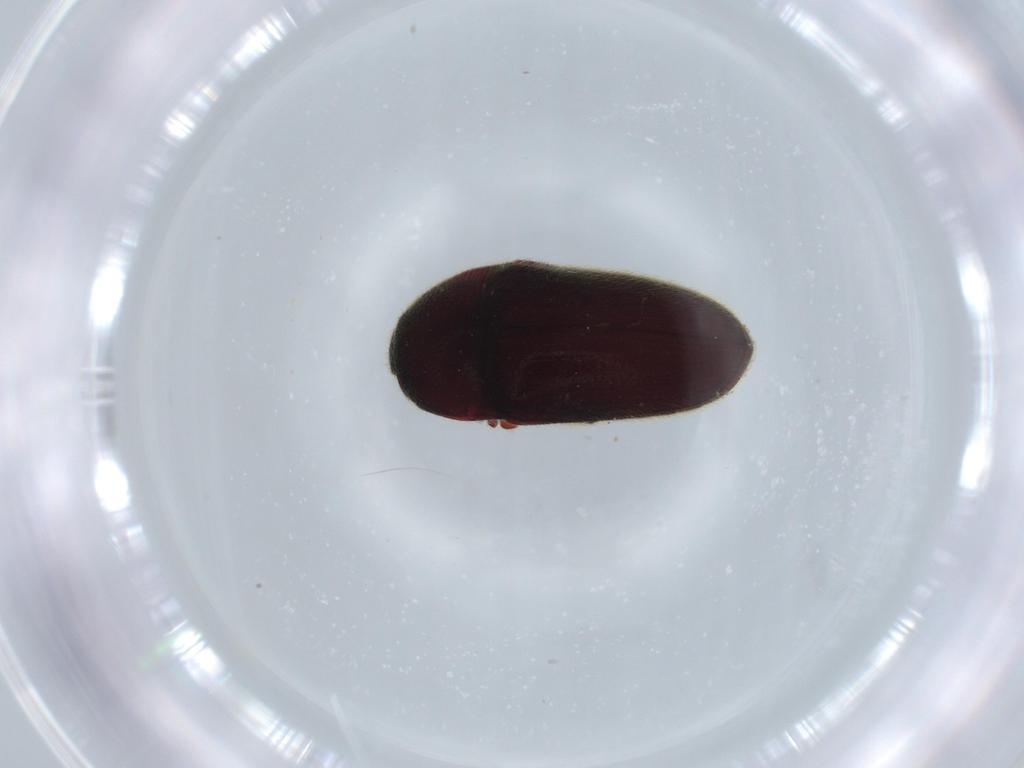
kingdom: Animalia
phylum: Arthropoda
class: Insecta
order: Coleoptera
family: Throscidae
